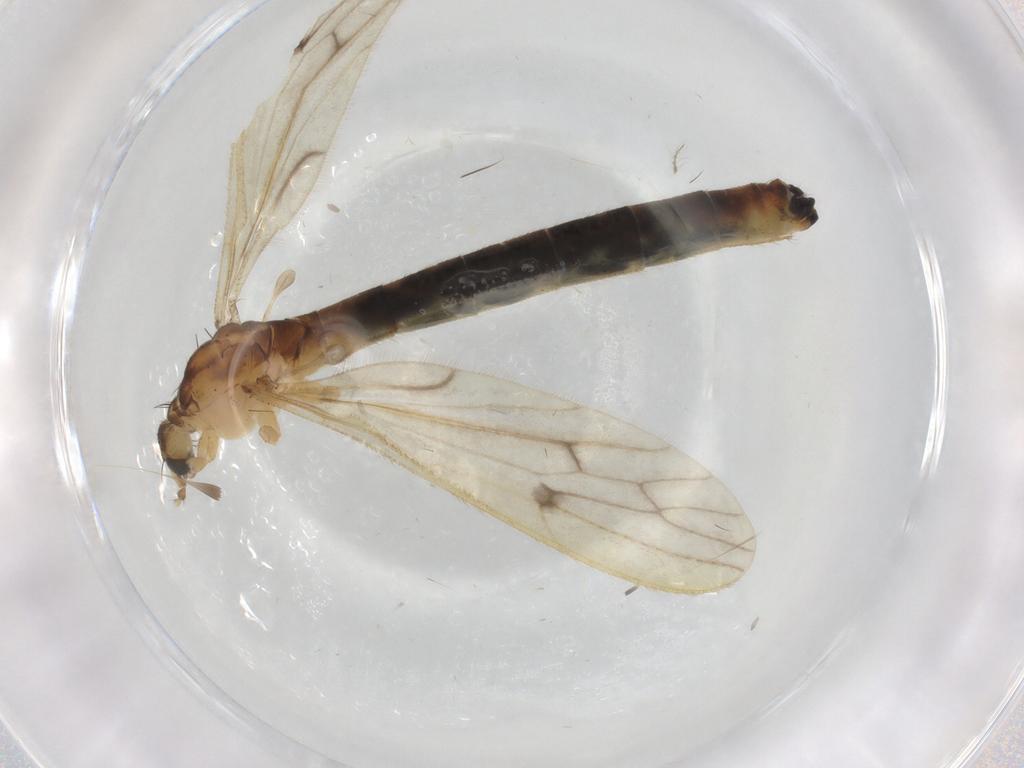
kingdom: Animalia
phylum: Arthropoda
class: Insecta
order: Diptera
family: Limoniidae
